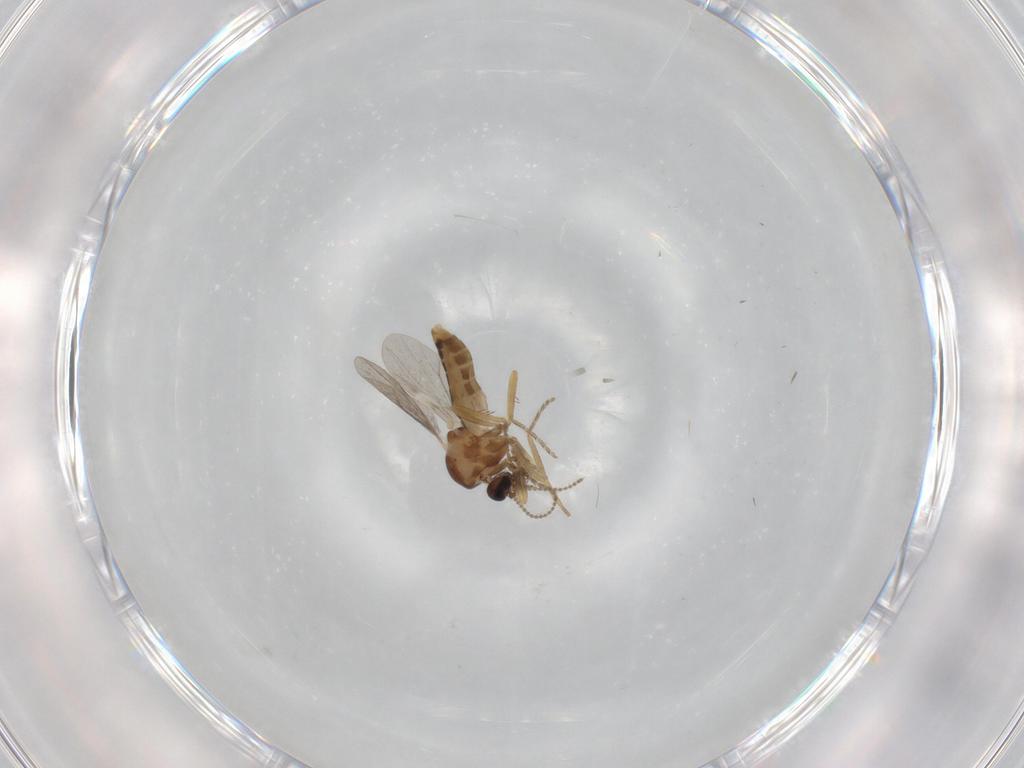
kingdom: Animalia
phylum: Arthropoda
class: Insecta
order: Diptera
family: Ceratopogonidae
